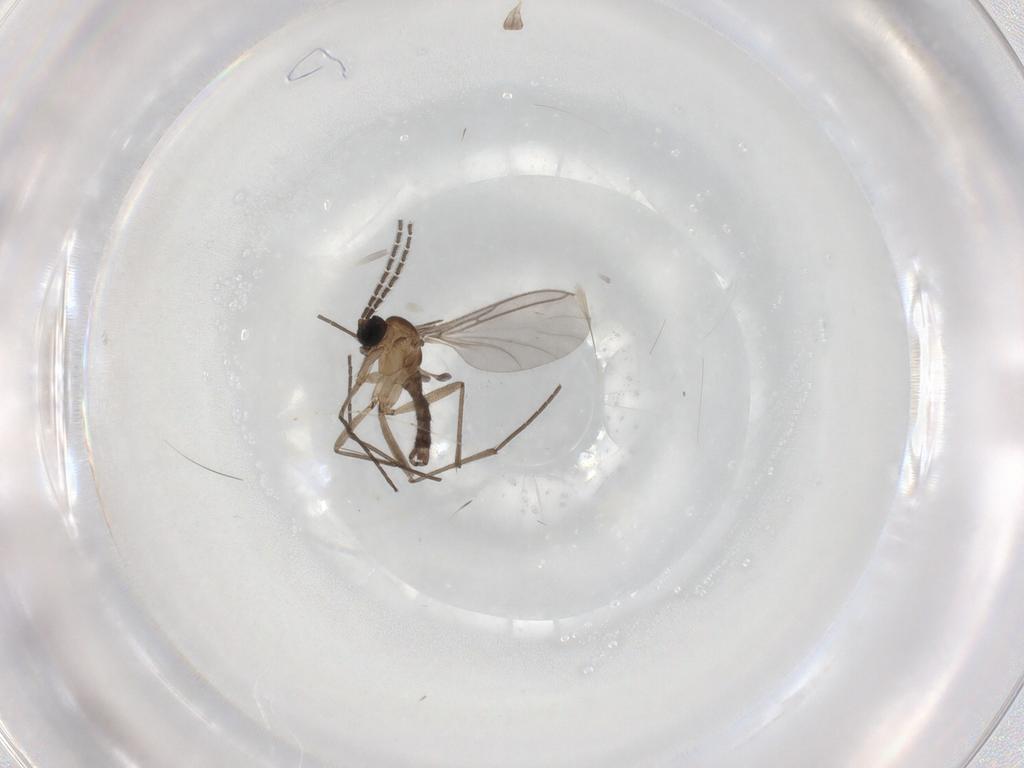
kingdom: Animalia
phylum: Arthropoda
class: Insecta
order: Diptera
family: Sciaridae
